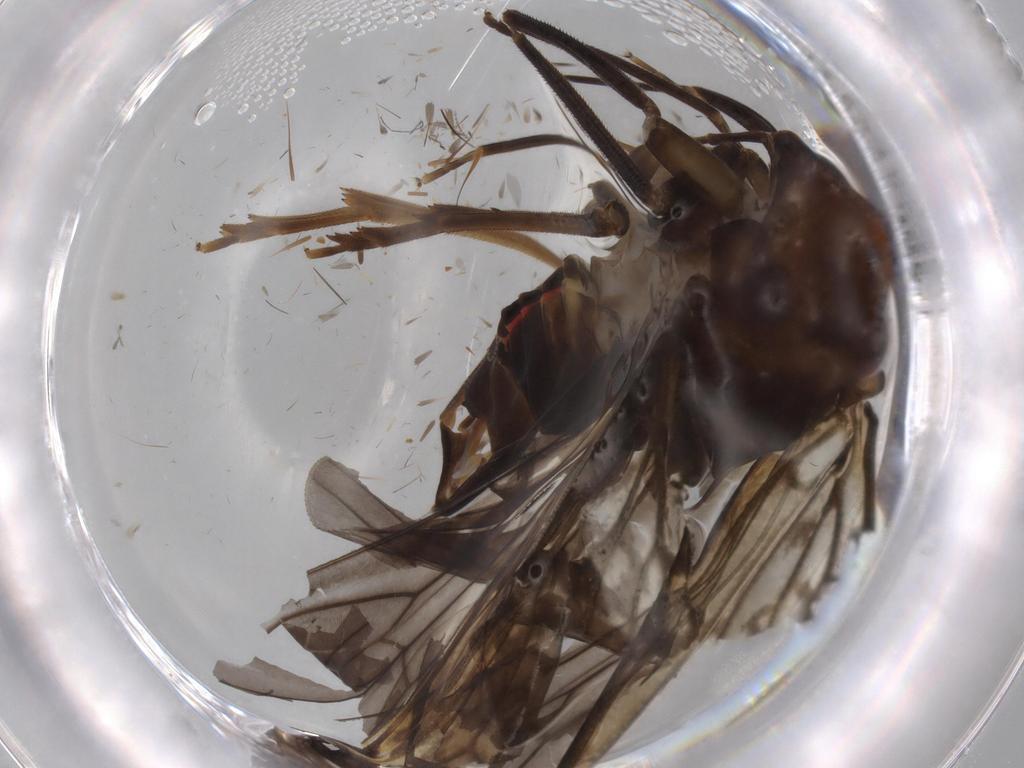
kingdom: Animalia
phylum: Arthropoda
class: Insecta
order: Hemiptera
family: Cixiidae
